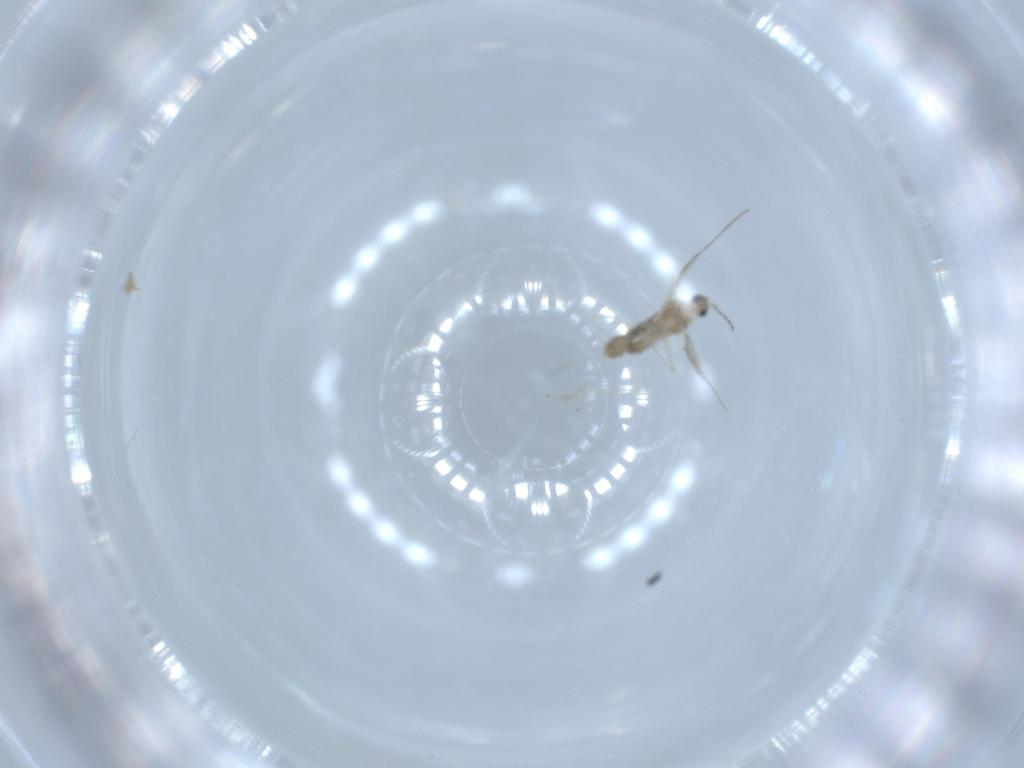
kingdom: Animalia
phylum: Arthropoda
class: Insecta
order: Diptera
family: Cecidomyiidae
